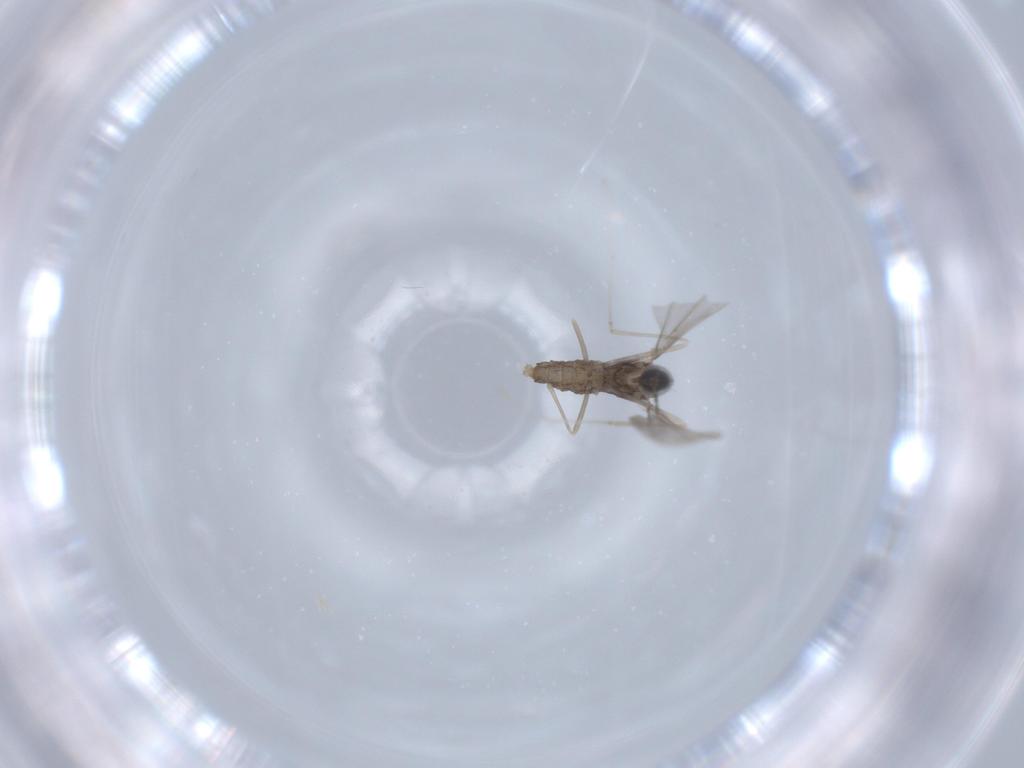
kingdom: Animalia
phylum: Arthropoda
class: Insecta
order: Diptera
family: Cecidomyiidae
